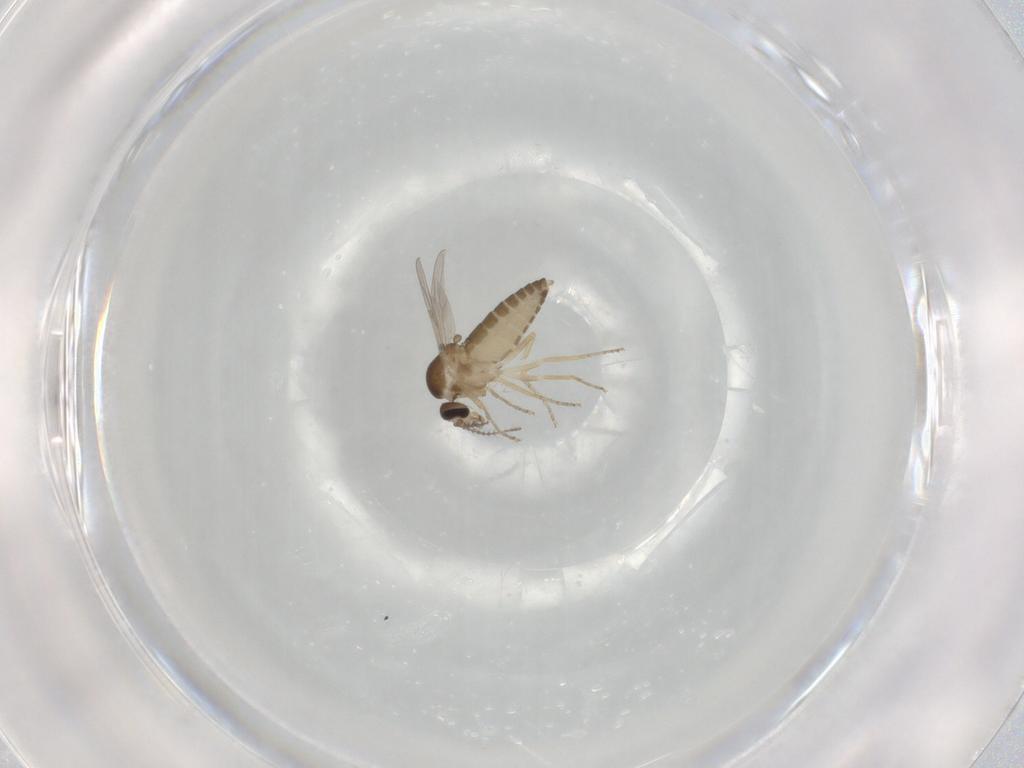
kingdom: Animalia
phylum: Arthropoda
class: Insecta
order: Diptera
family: Ceratopogonidae
